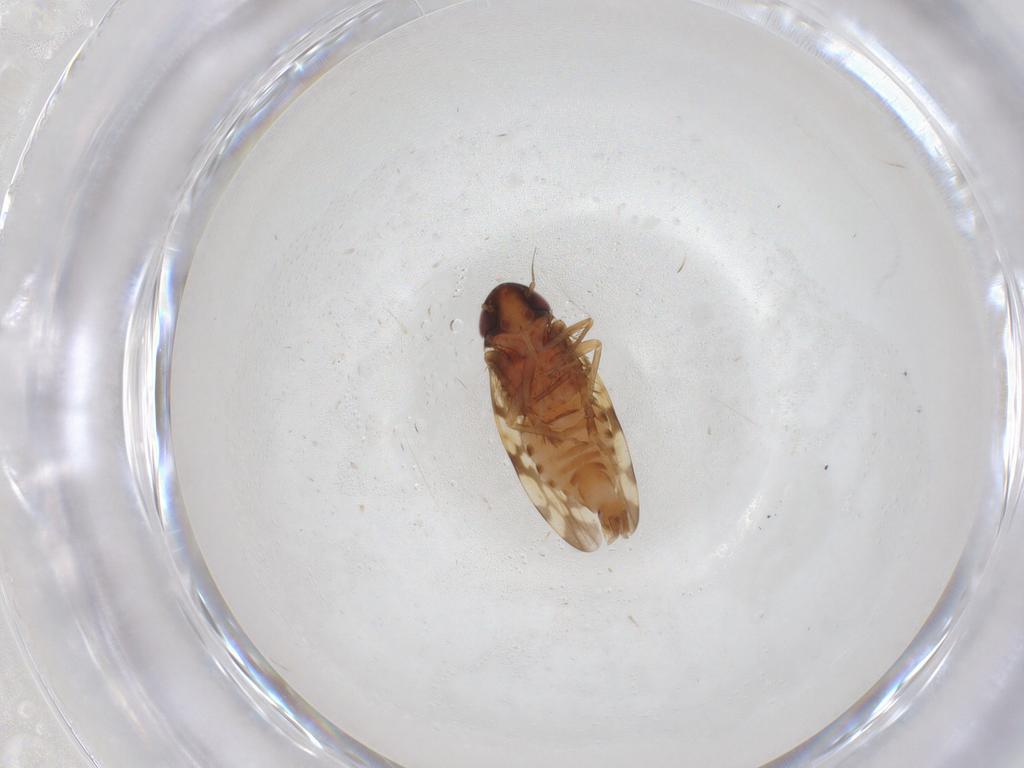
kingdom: Animalia
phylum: Arthropoda
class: Insecta
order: Hemiptera
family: Cicadellidae
